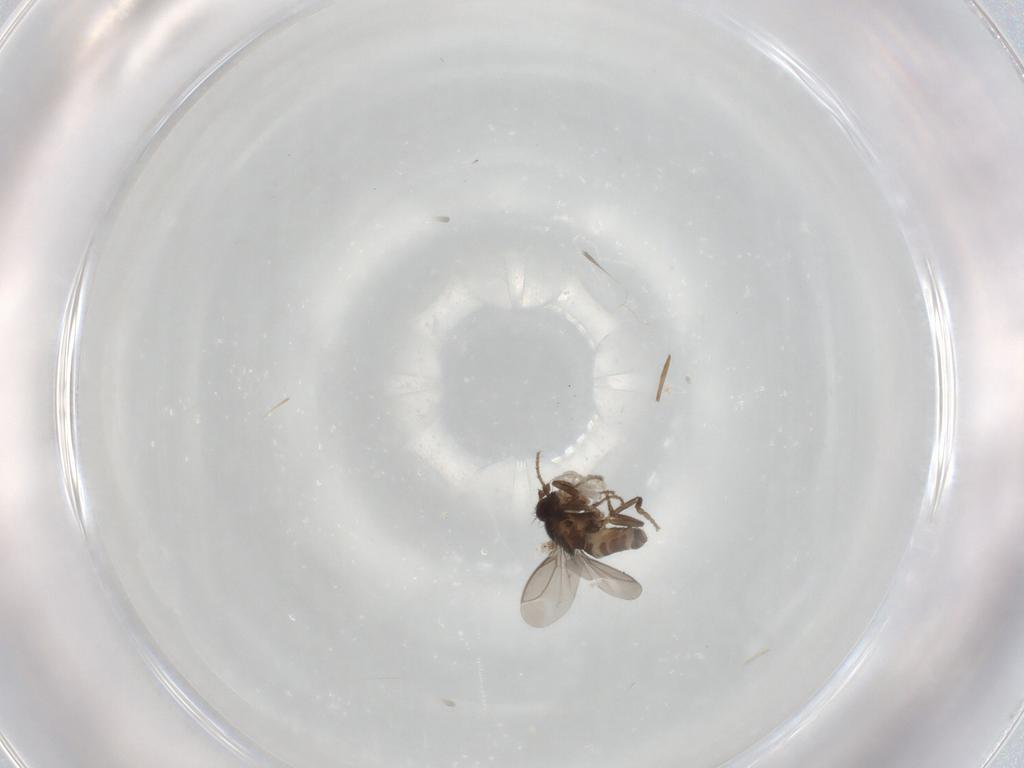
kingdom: Animalia
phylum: Arthropoda
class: Insecta
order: Diptera
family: Sphaeroceridae
